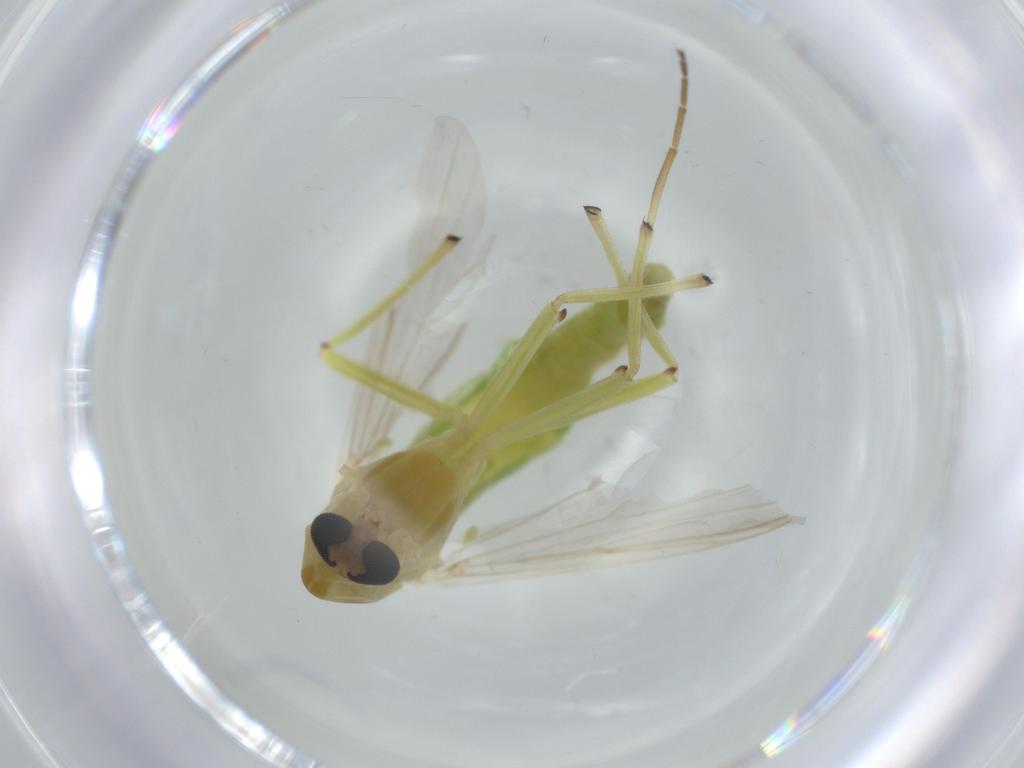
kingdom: Animalia
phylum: Arthropoda
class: Insecta
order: Diptera
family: Chironomidae
